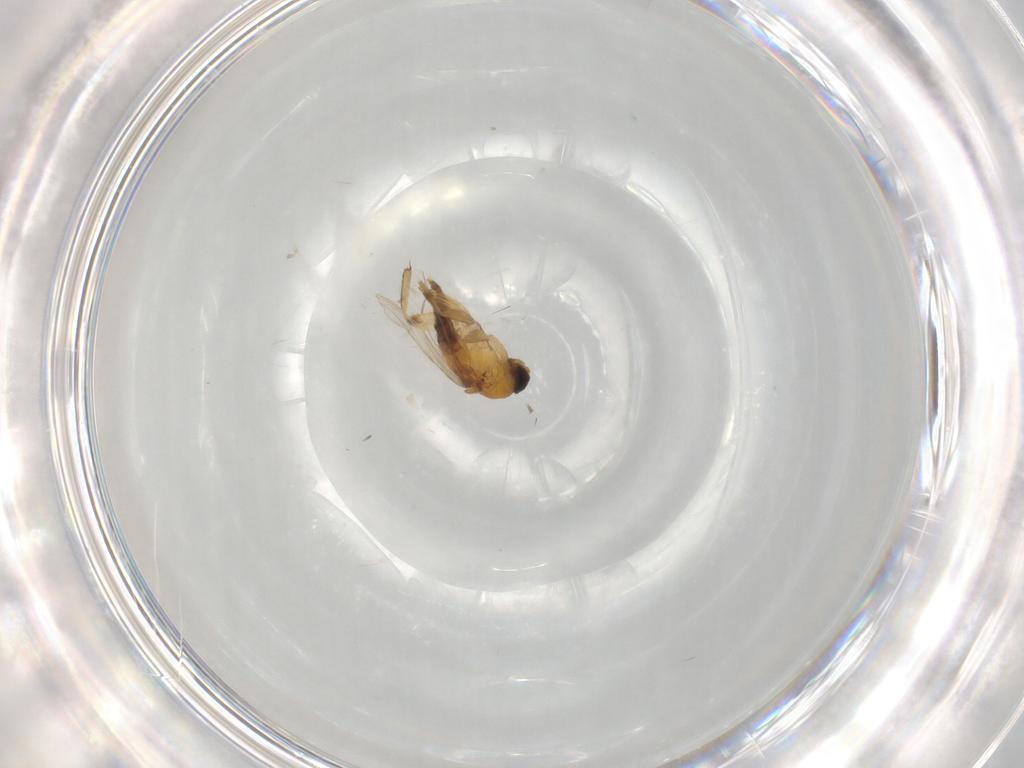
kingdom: Animalia
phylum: Arthropoda
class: Insecta
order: Diptera
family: Phoridae
